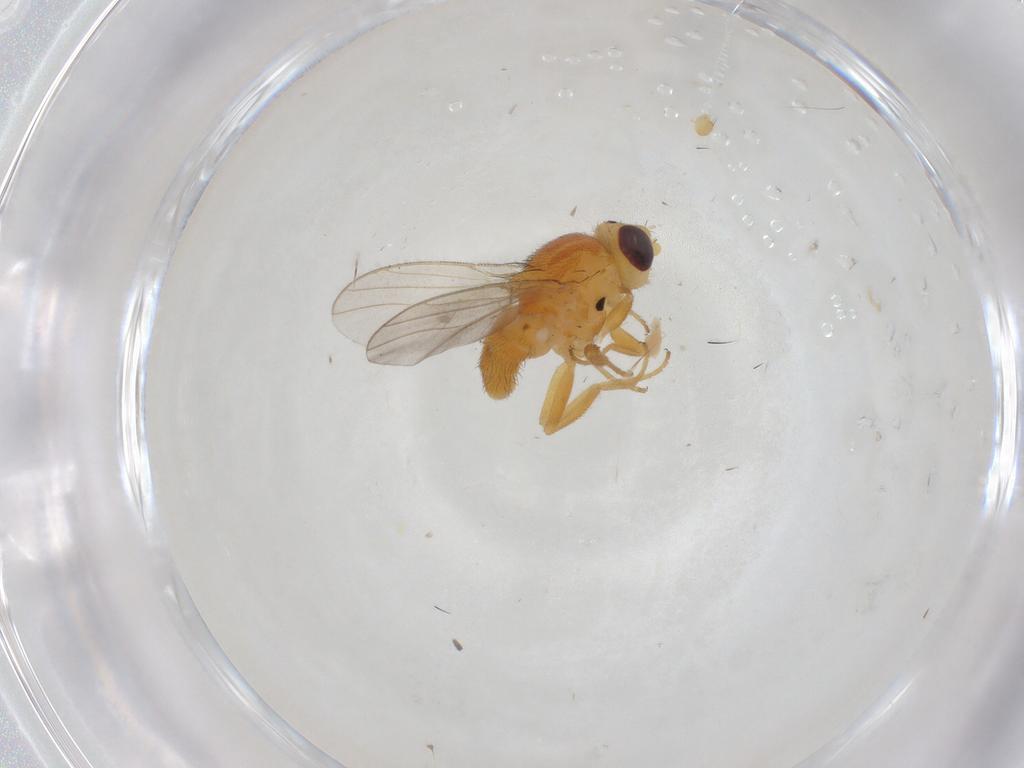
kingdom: Animalia
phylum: Arthropoda
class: Insecta
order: Diptera
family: Chloropidae
